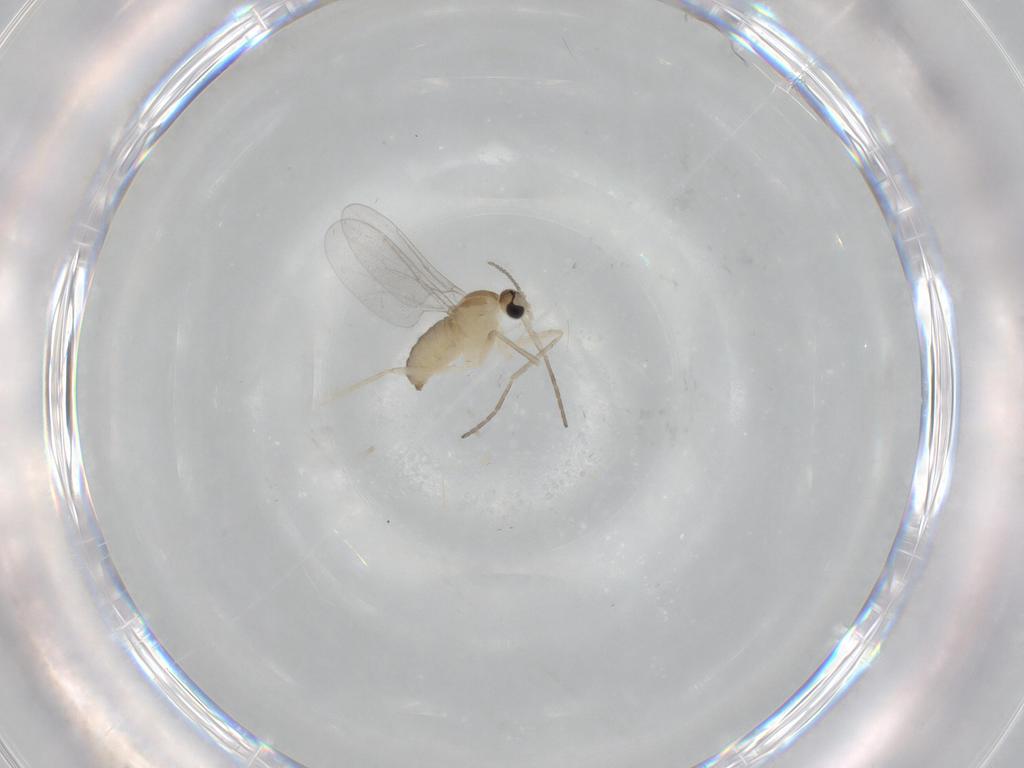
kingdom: Animalia
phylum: Arthropoda
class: Insecta
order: Diptera
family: Cecidomyiidae
